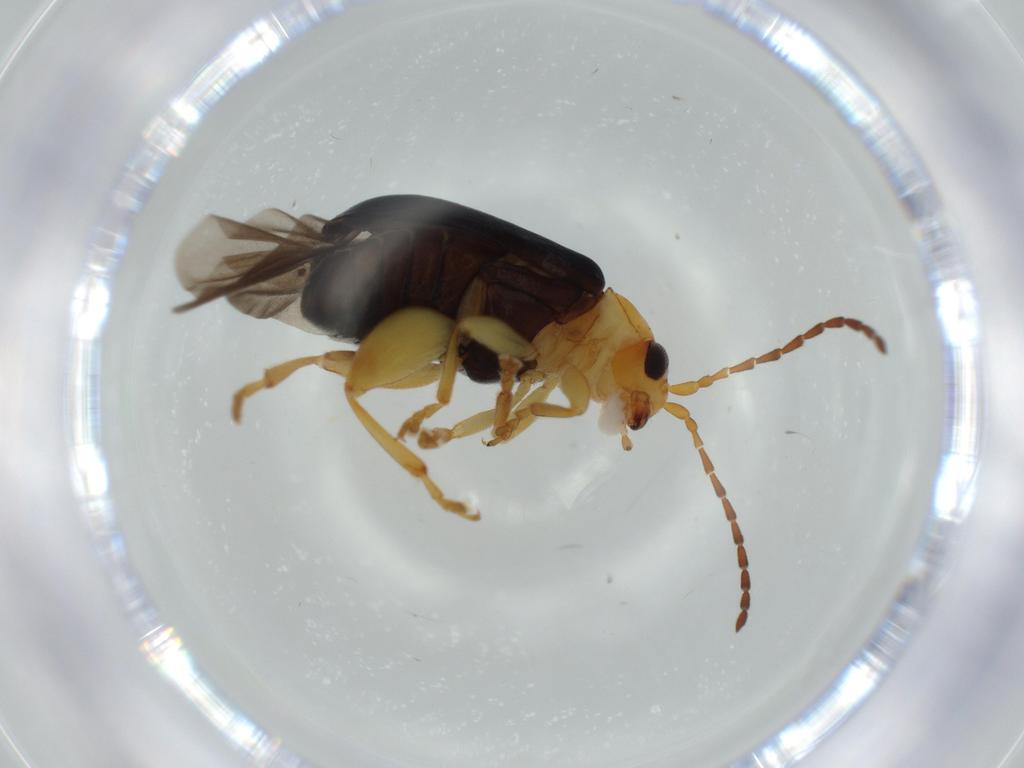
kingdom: Animalia
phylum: Arthropoda
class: Insecta
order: Coleoptera
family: Chrysomelidae
